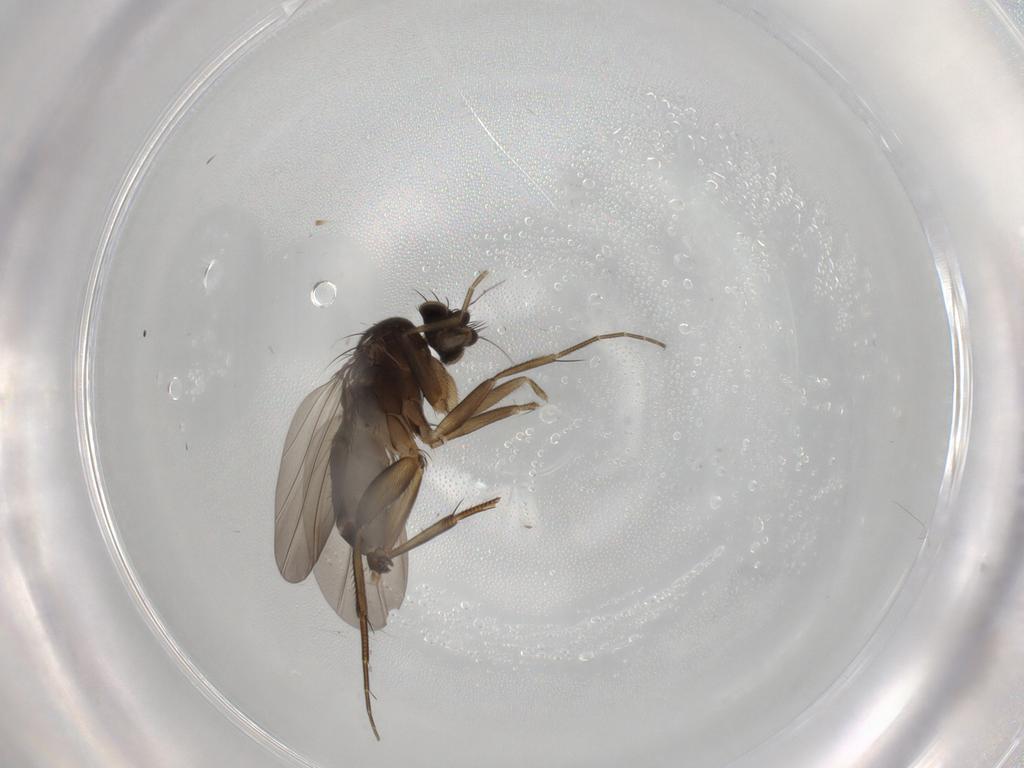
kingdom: Animalia
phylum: Arthropoda
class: Insecta
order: Diptera
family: Phoridae
